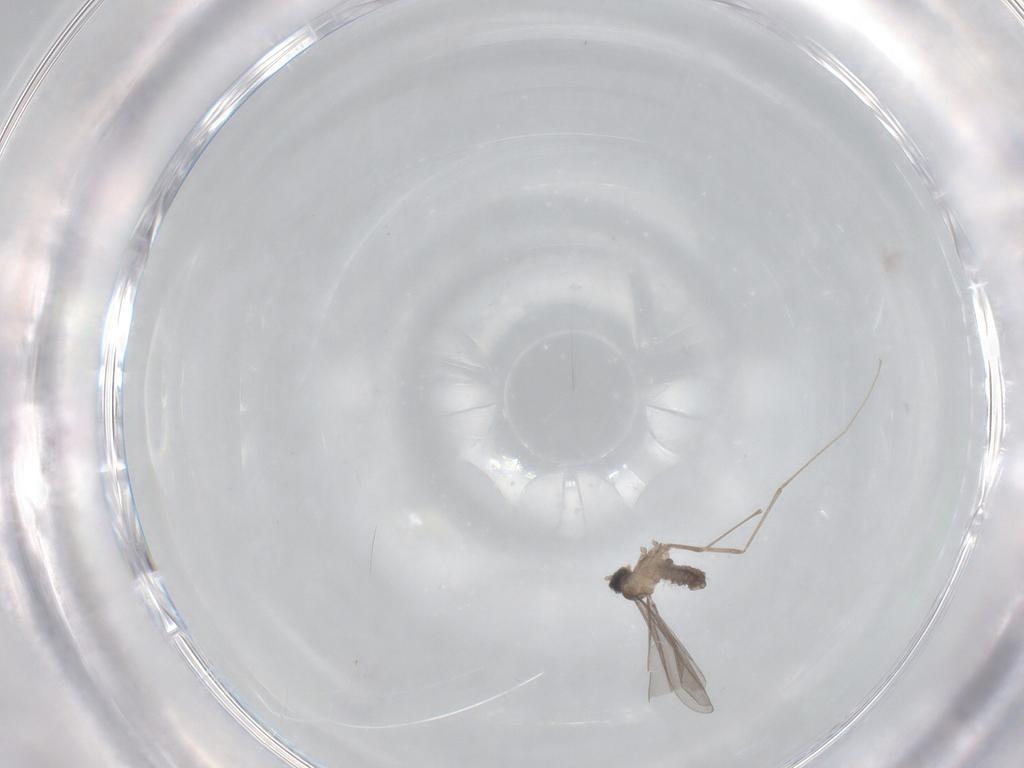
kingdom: Animalia
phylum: Arthropoda
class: Insecta
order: Diptera
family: Cecidomyiidae
